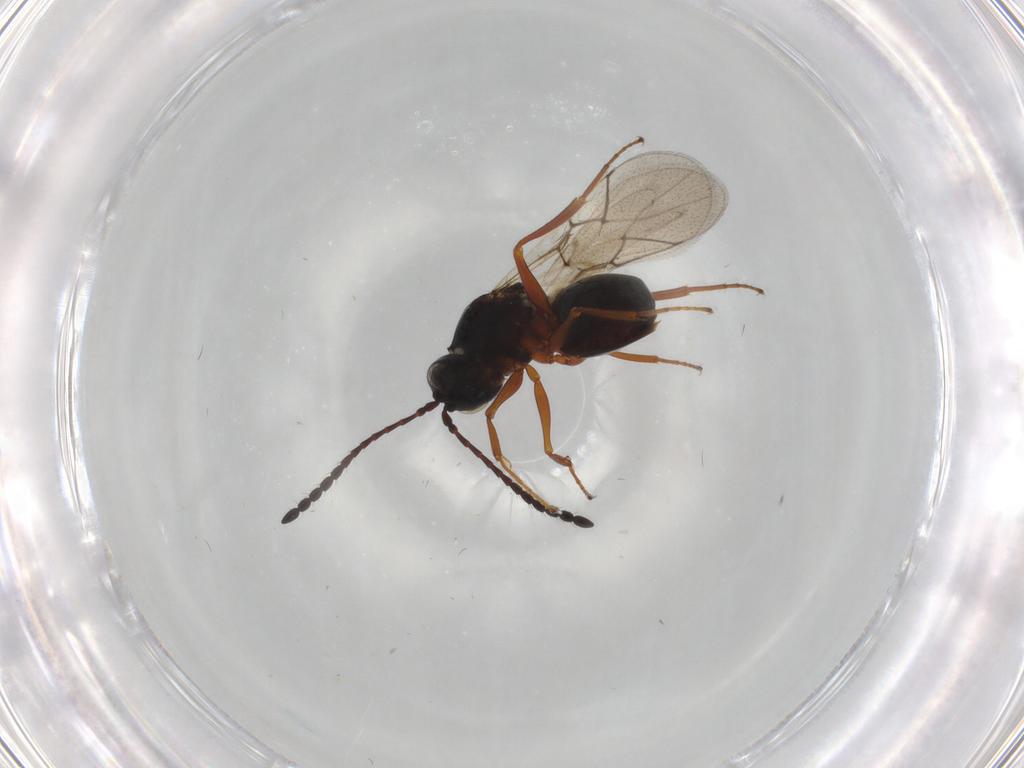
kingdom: Animalia
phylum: Arthropoda
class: Insecta
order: Hymenoptera
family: Figitidae
